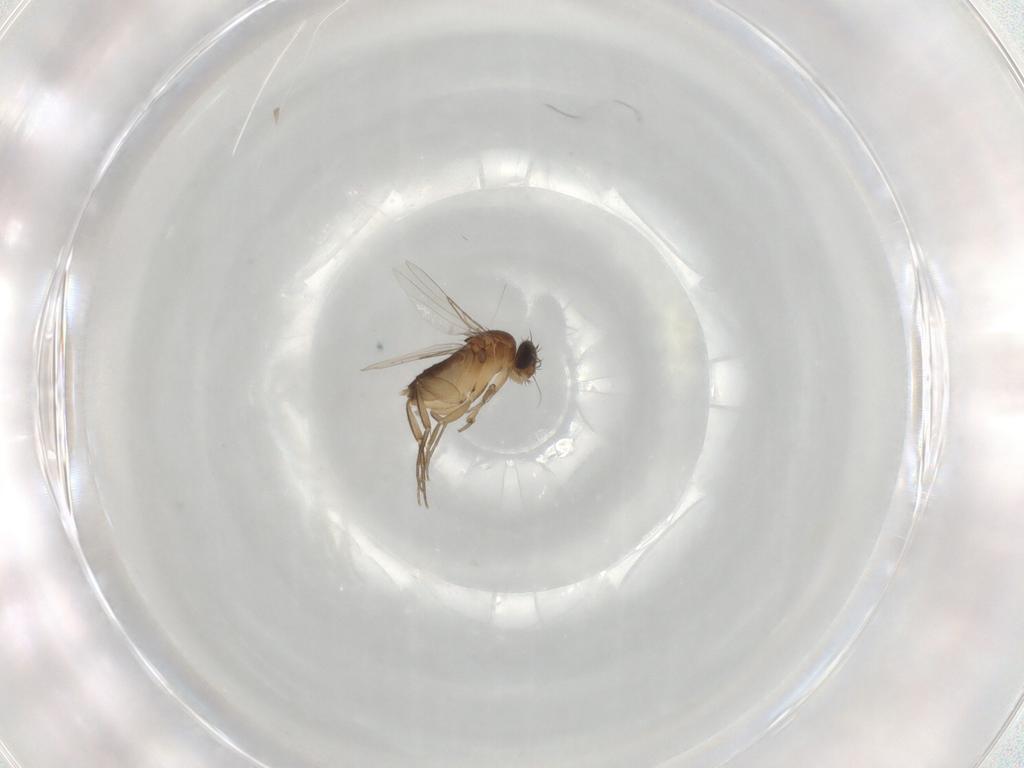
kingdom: Animalia
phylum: Arthropoda
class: Insecta
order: Diptera
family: Phoridae
